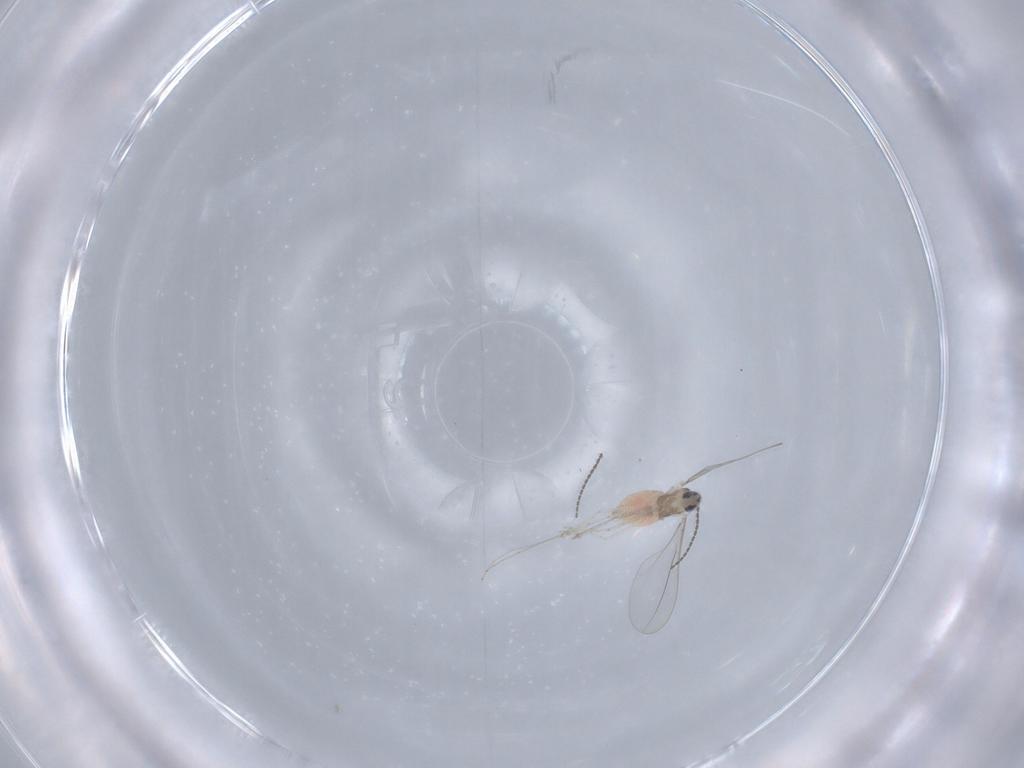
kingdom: Animalia
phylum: Arthropoda
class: Insecta
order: Diptera
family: Cecidomyiidae
